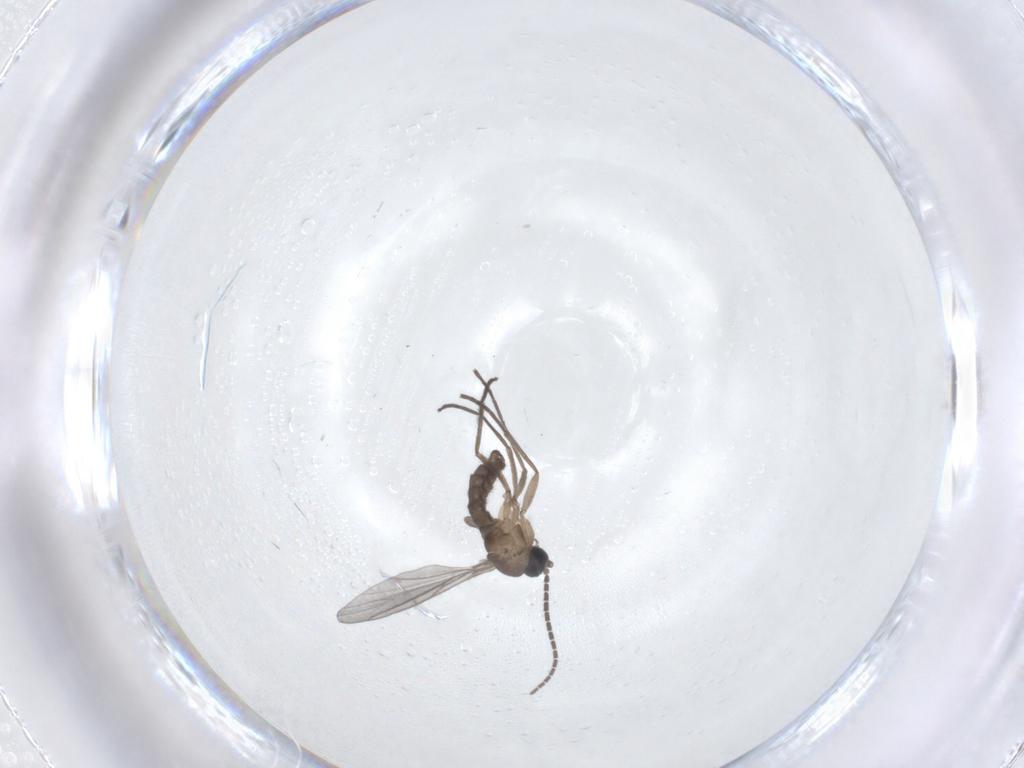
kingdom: Animalia
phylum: Arthropoda
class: Insecta
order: Diptera
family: Sciaridae
